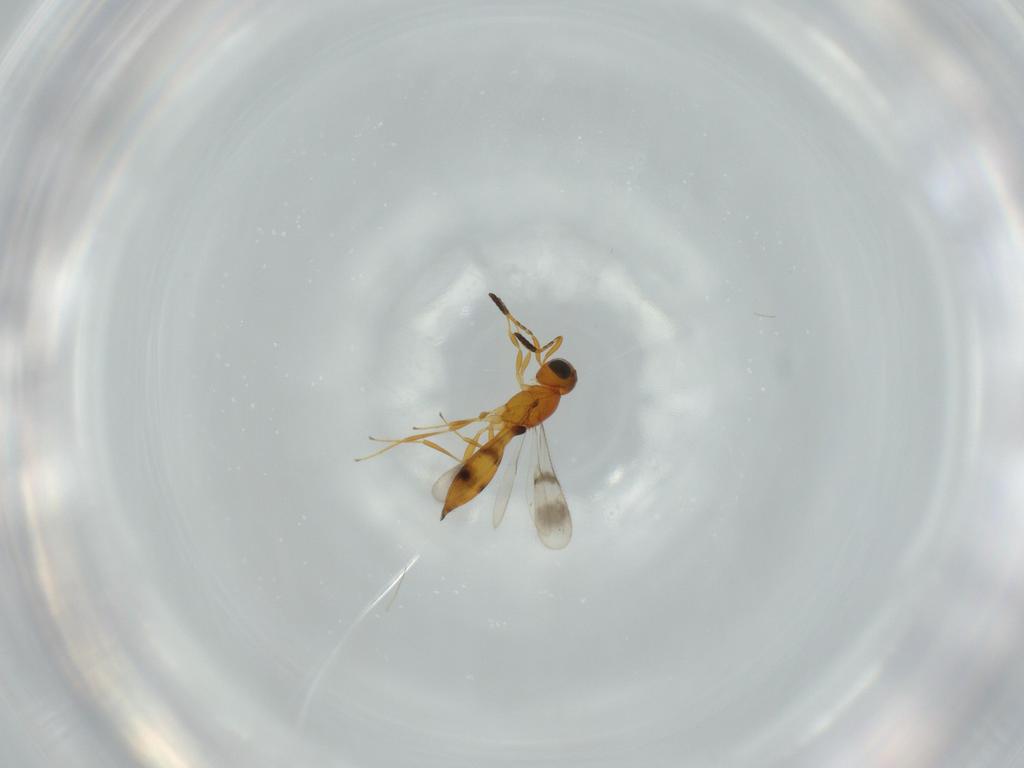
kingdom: Animalia
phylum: Arthropoda
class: Insecta
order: Hymenoptera
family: Scelionidae
